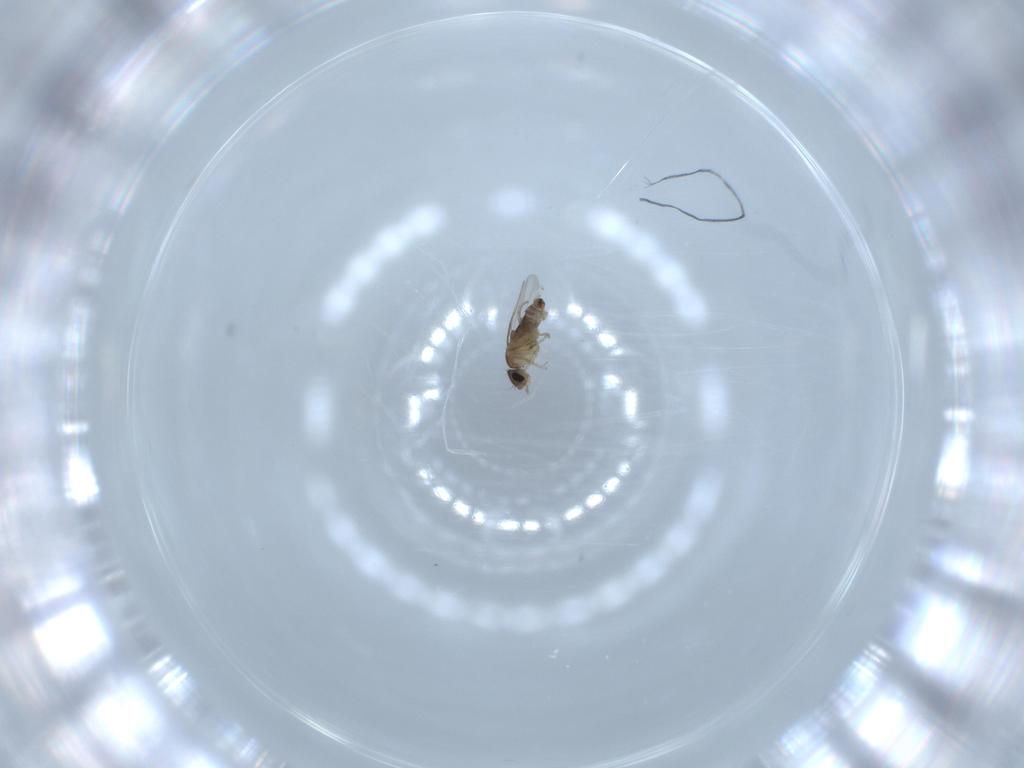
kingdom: Animalia
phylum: Arthropoda
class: Insecta
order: Diptera
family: Phoridae
